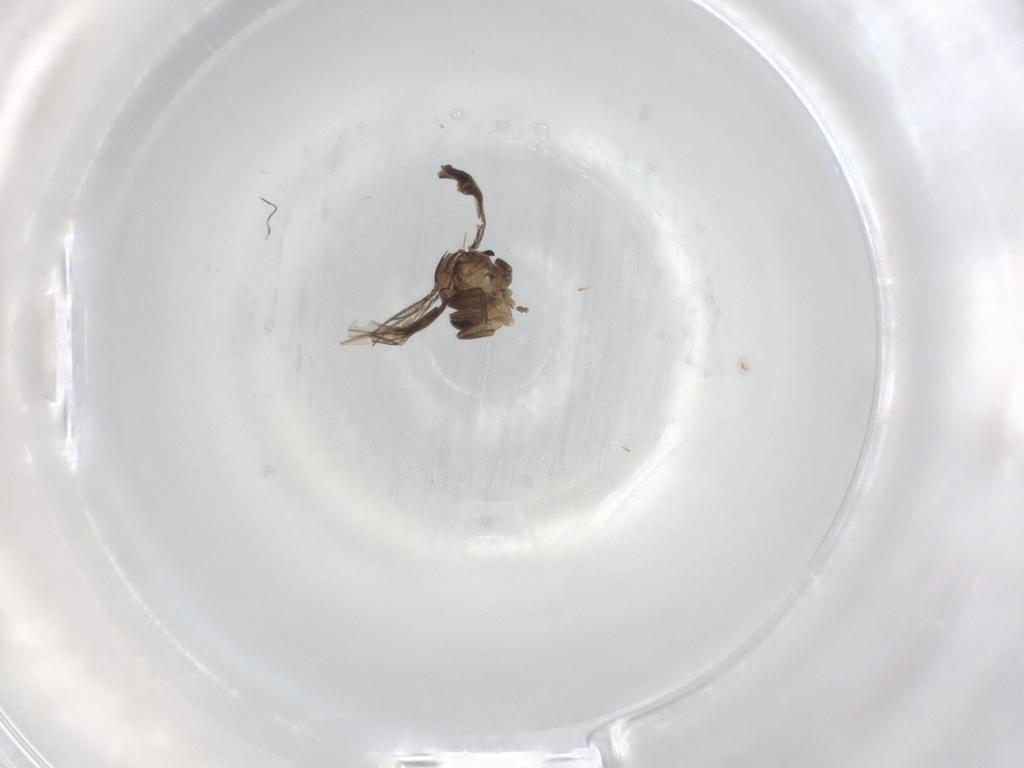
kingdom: Animalia
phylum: Arthropoda
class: Insecta
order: Diptera
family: Chironomidae
